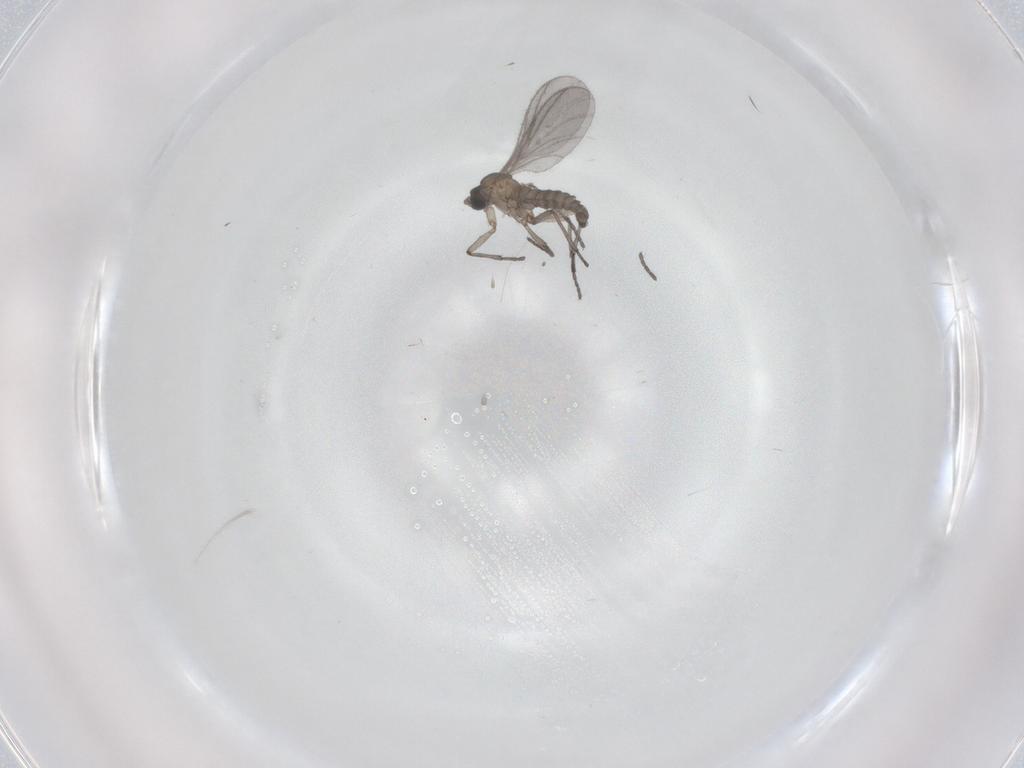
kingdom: Animalia
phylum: Arthropoda
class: Insecta
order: Diptera
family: Sciaridae
